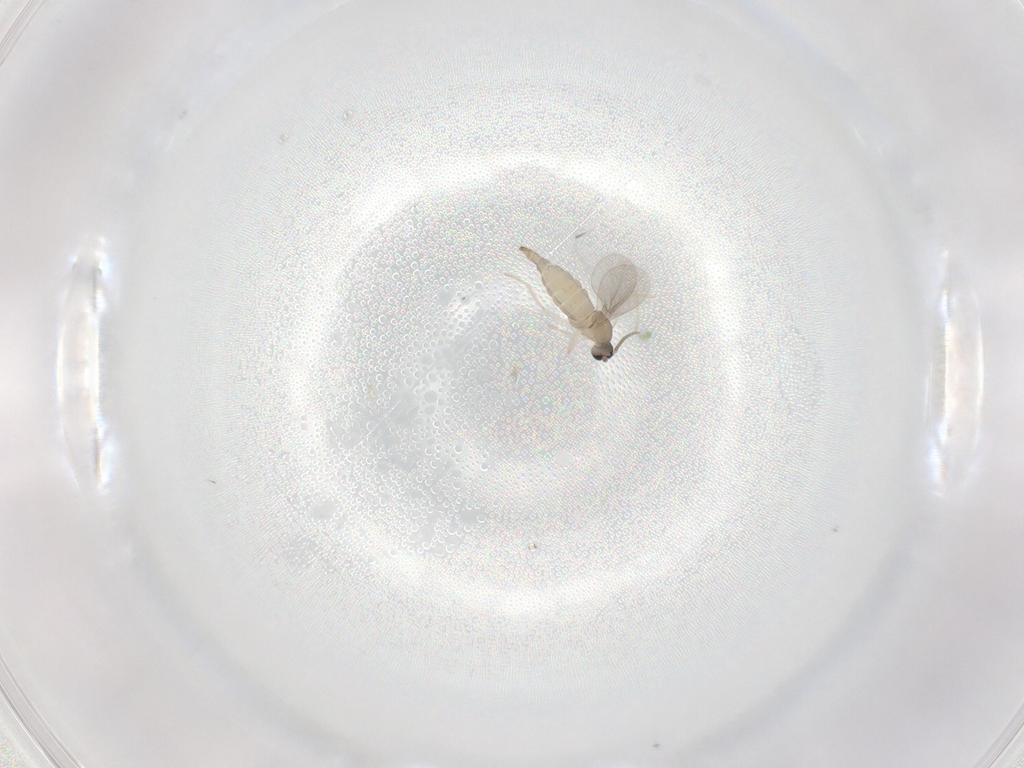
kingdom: Animalia
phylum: Arthropoda
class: Insecta
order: Diptera
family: Cecidomyiidae
